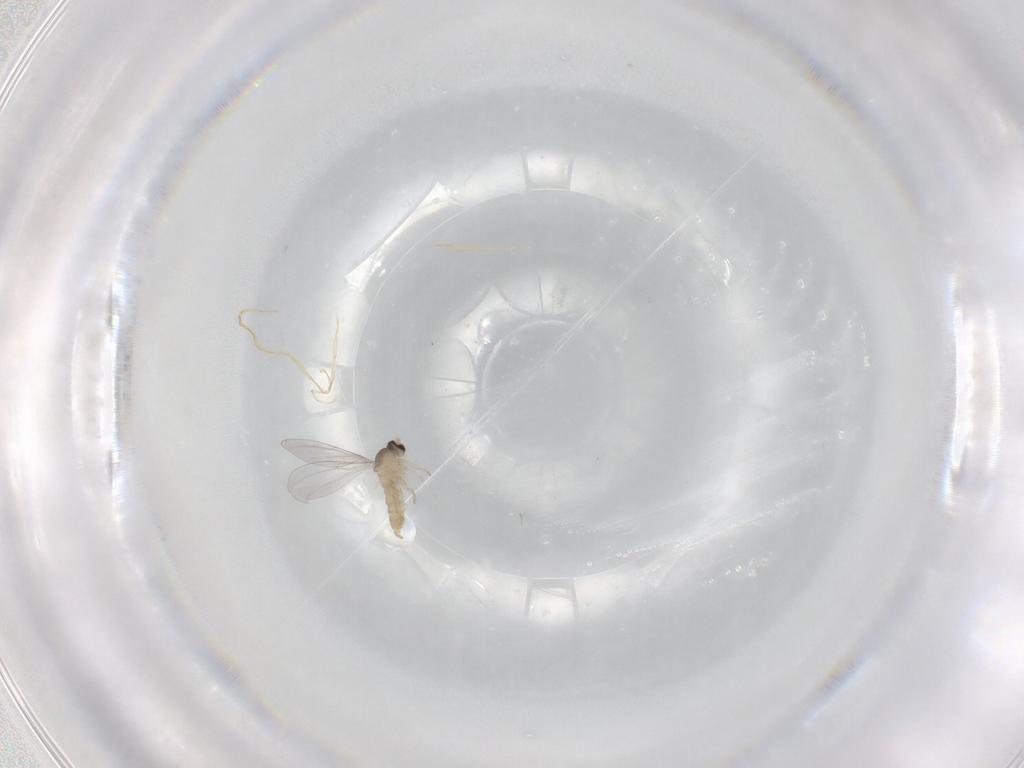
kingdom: Animalia
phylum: Arthropoda
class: Insecta
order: Diptera
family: Cecidomyiidae
